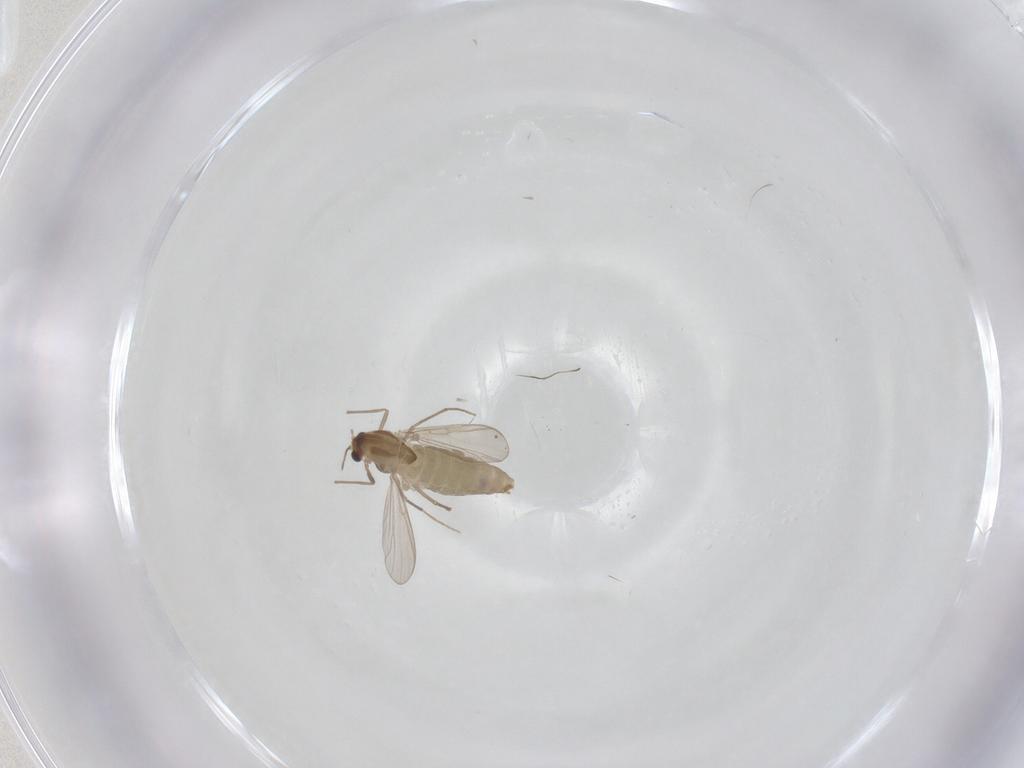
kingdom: Animalia
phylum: Arthropoda
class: Insecta
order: Diptera
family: Chironomidae
